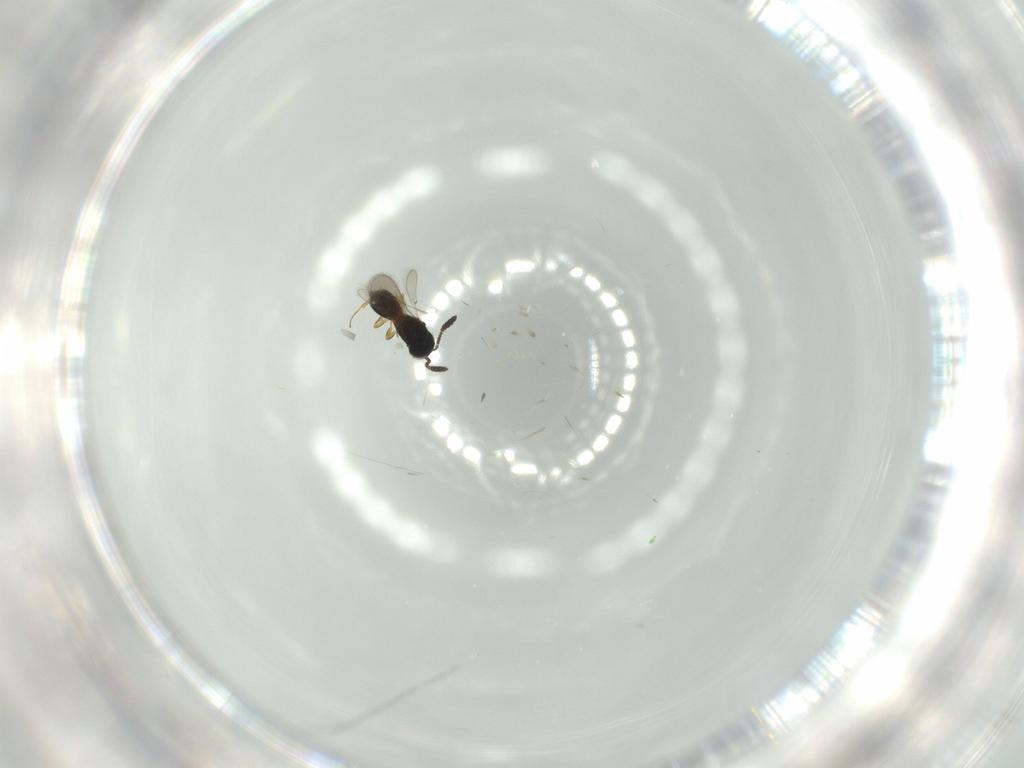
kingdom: Animalia
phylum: Arthropoda
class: Insecta
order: Hymenoptera
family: Scelionidae
